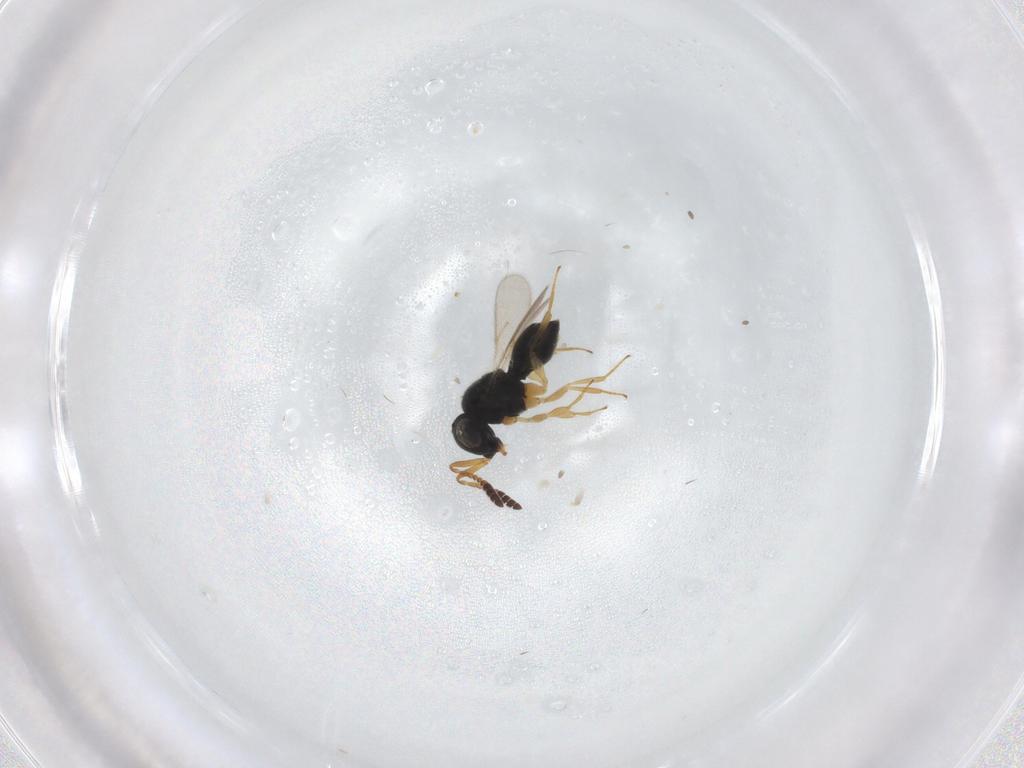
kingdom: Animalia
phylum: Arthropoda
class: Insecta
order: Hymenoptera
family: Scelionidae
